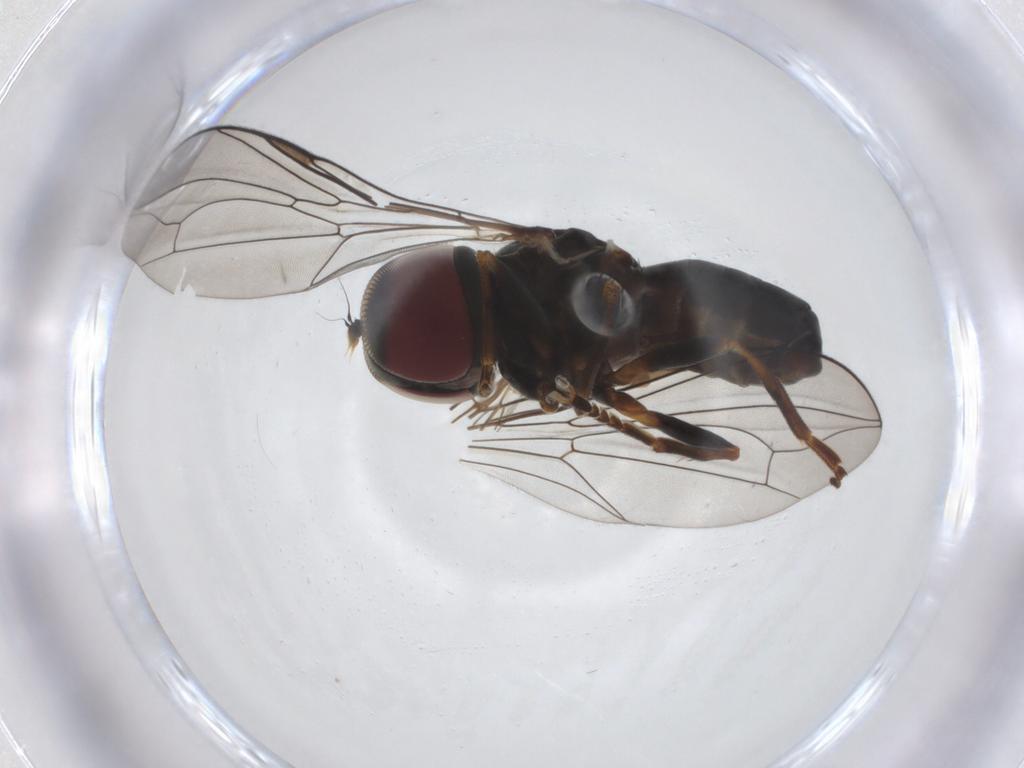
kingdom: Animalia
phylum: Arthropoda
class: Insecta
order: Diptera
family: Pipunculidae
